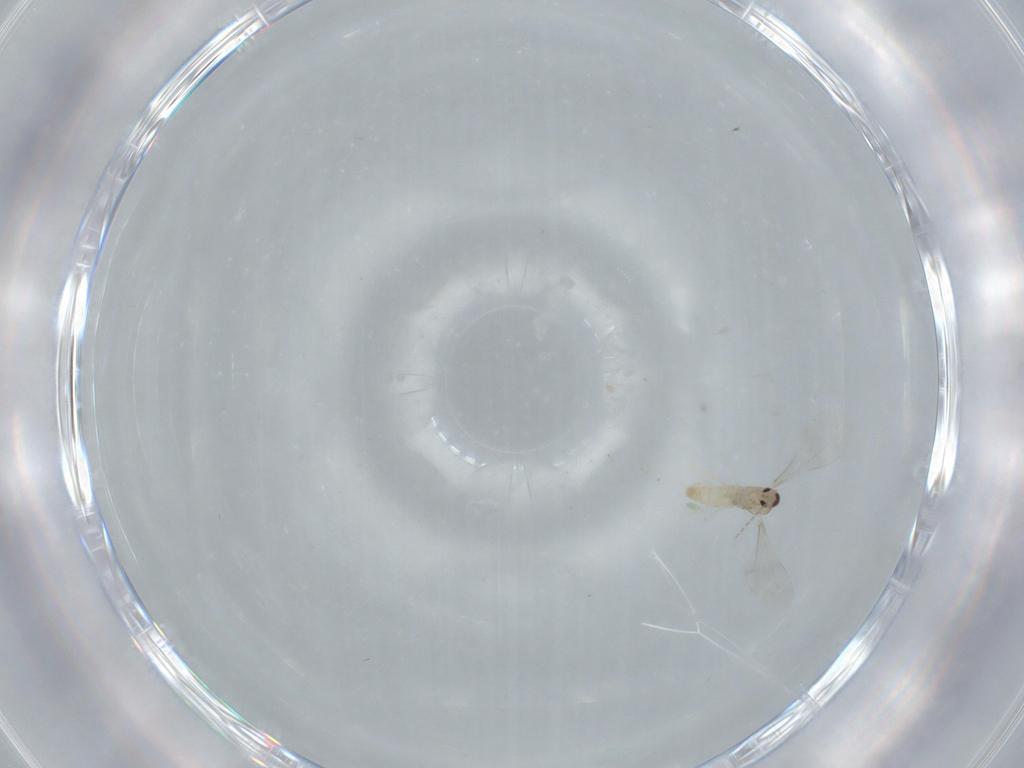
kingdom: Animalia
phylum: Arthropoda
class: Insecta
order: Diptera
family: Cecidomyiidae
